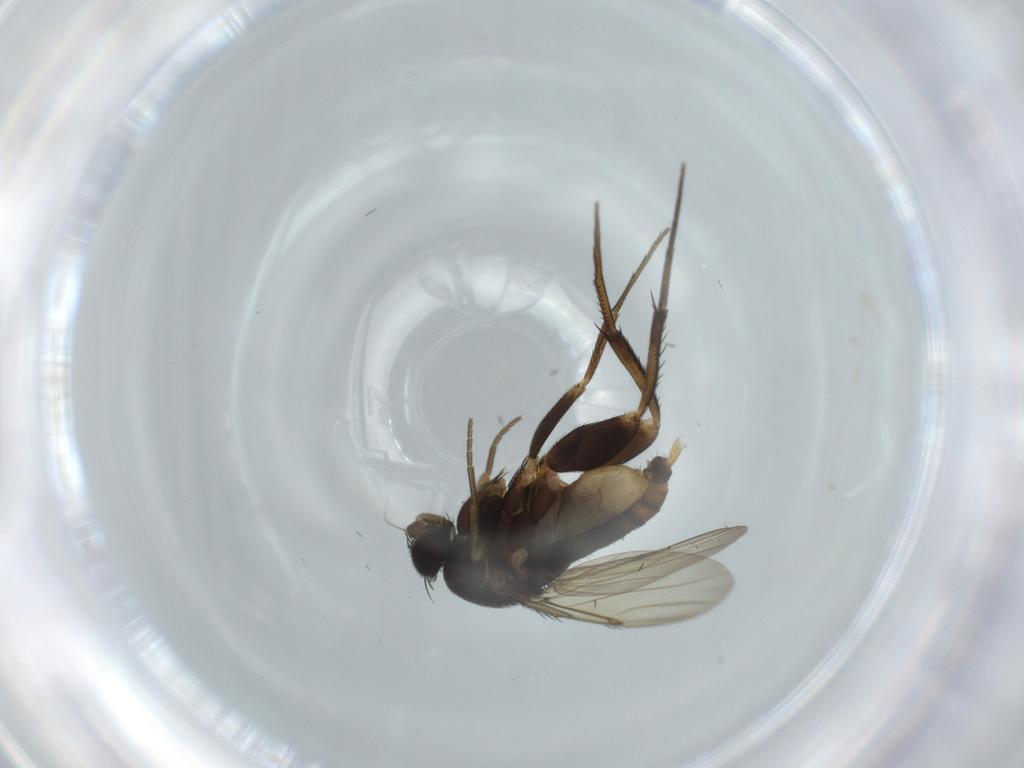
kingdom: Animalia
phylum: Arthropoda
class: Insecta
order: Diptera
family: Phoridae
